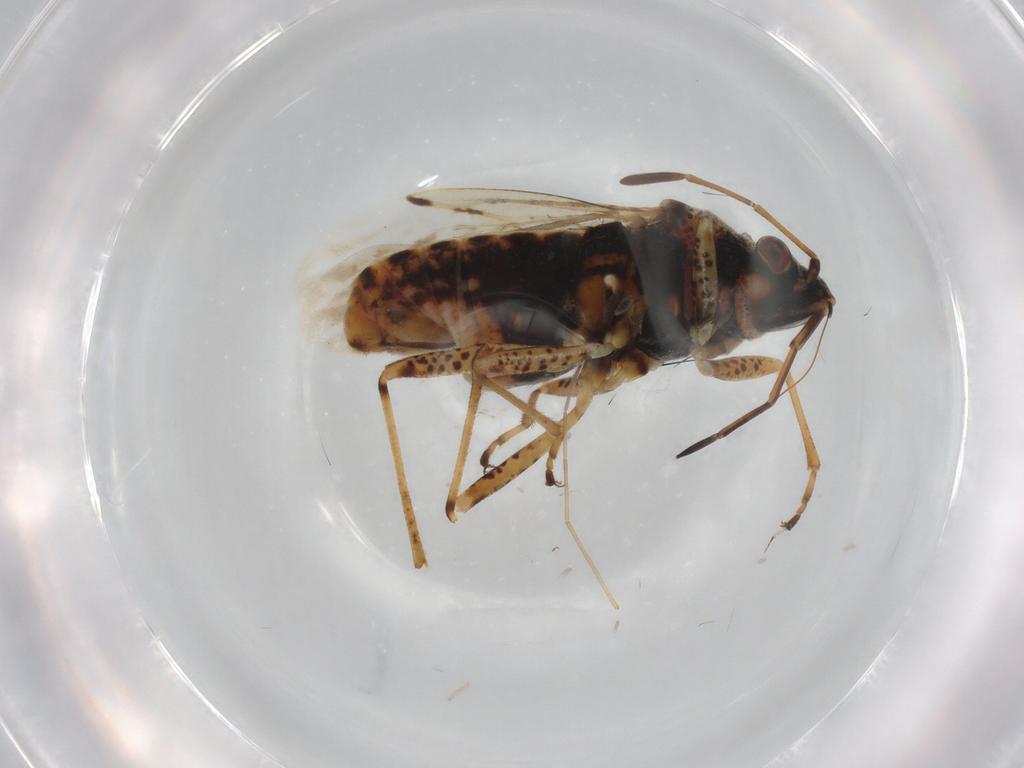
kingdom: Animalia
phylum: Arthropoda
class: Insecta
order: Hemiptera
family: Lygaeidae
